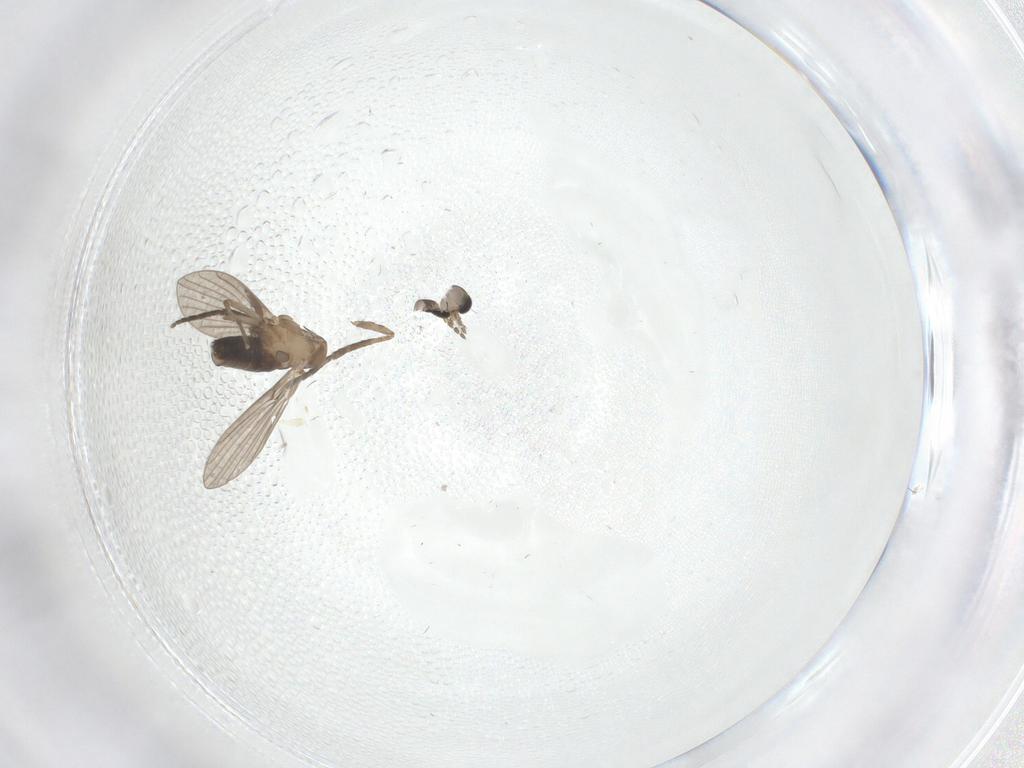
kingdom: Animalia
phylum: Arthropoda
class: Insecta
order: Diptera
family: Psychodidae
